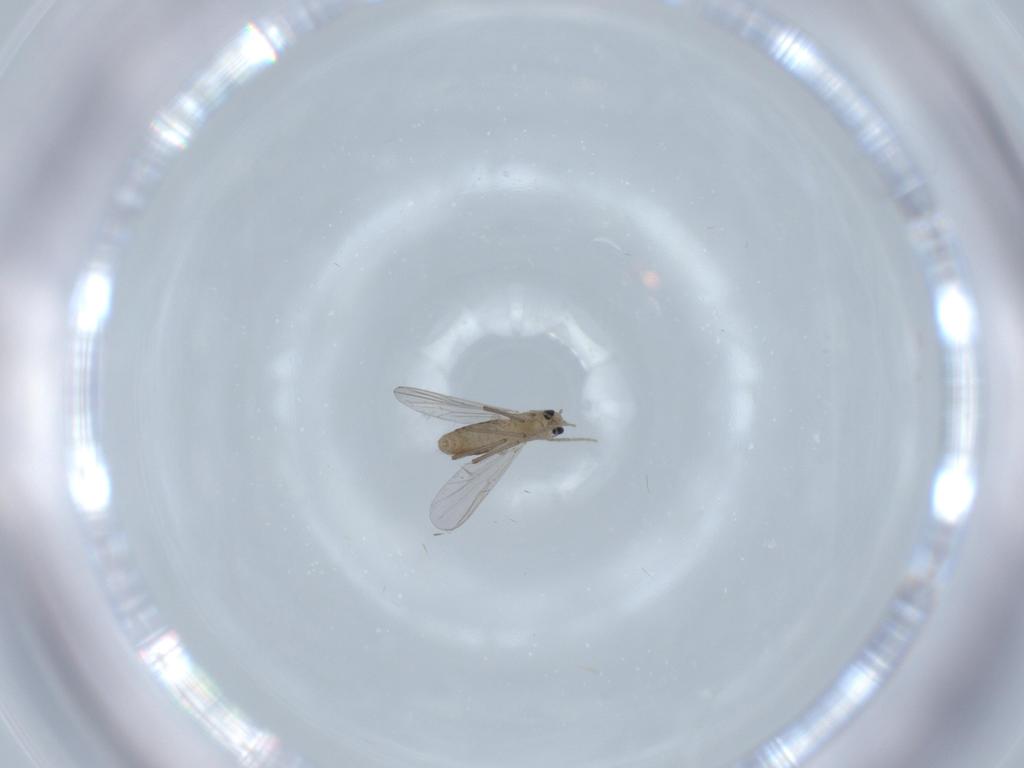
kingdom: Animalia
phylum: Arthropoda
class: Insecta
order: Diptera
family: Chironomidae
